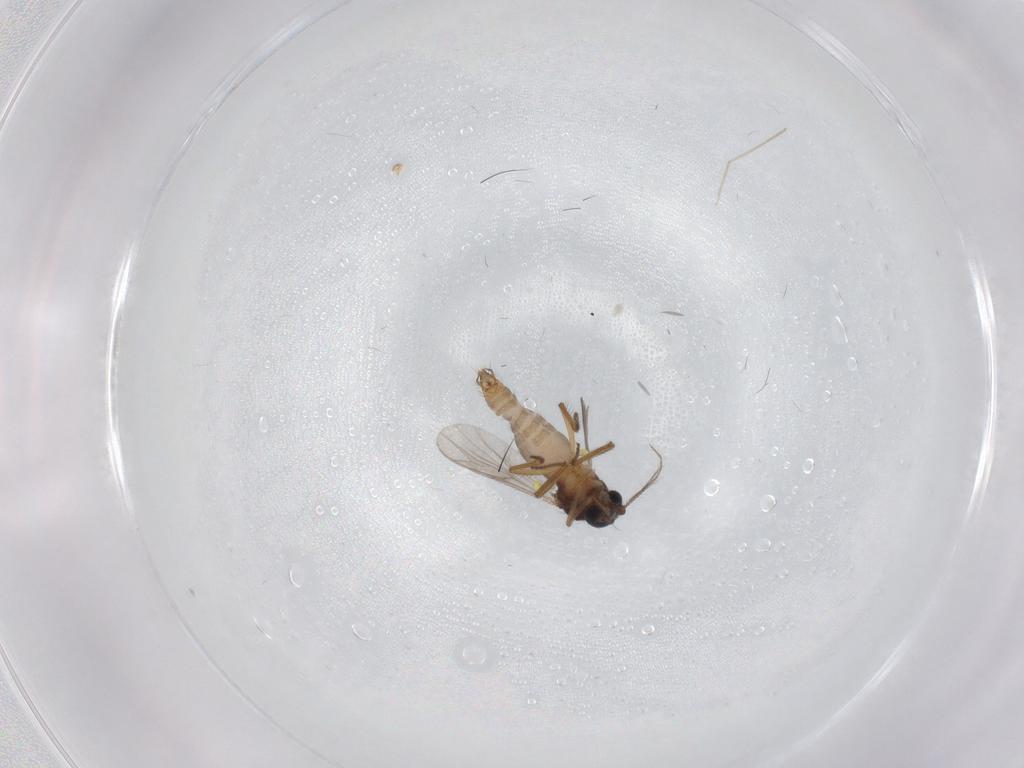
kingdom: Animalia
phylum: Arthropoda
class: Insecta
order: Diptera
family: Ceratopogonidae
